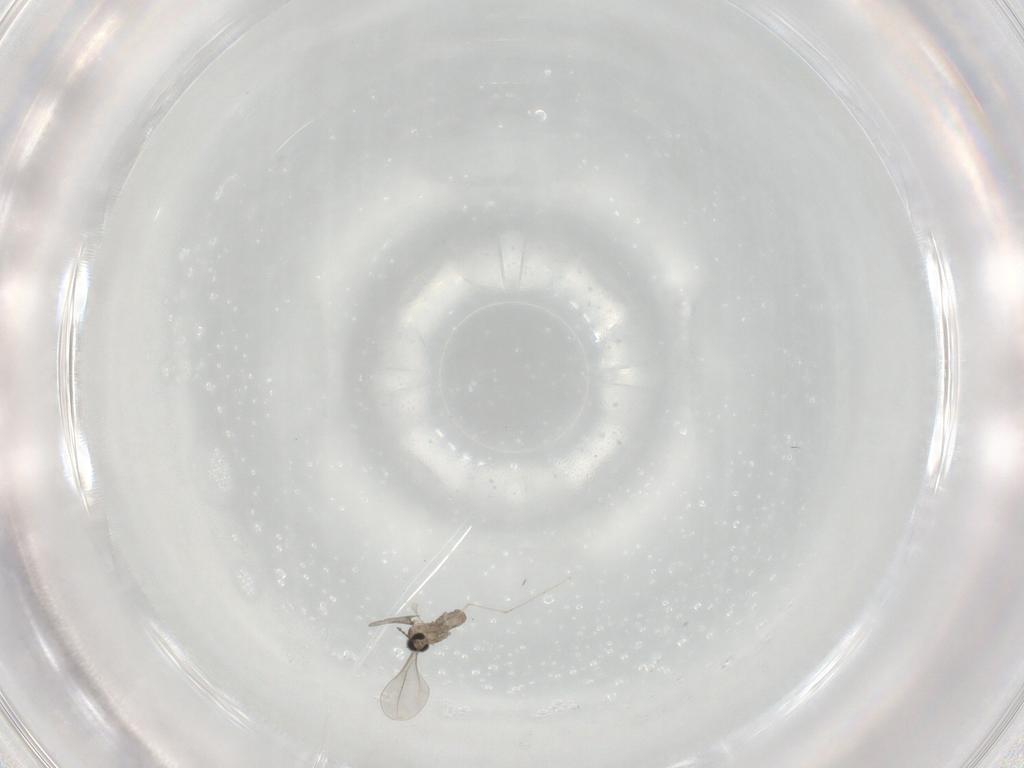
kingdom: Animalia
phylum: Arthropoda
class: Insecta
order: Diptera
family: Cecidomyiidae
